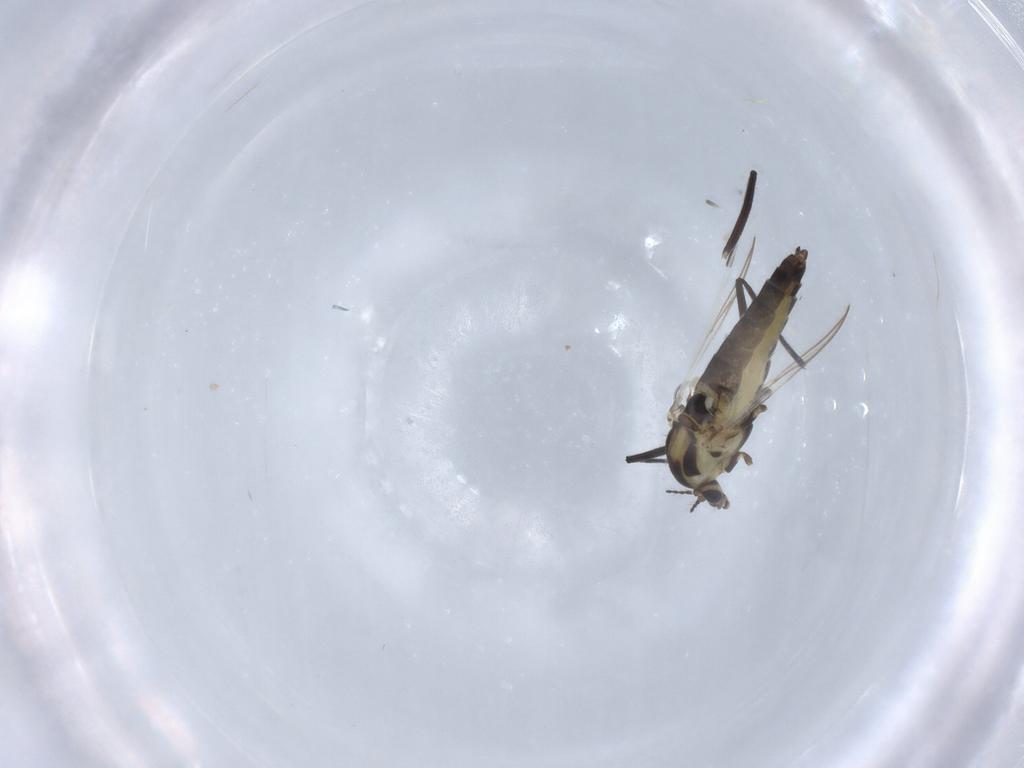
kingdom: Animalia
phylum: Arthropoda
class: Insecta
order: Diptera
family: Chironomidae
